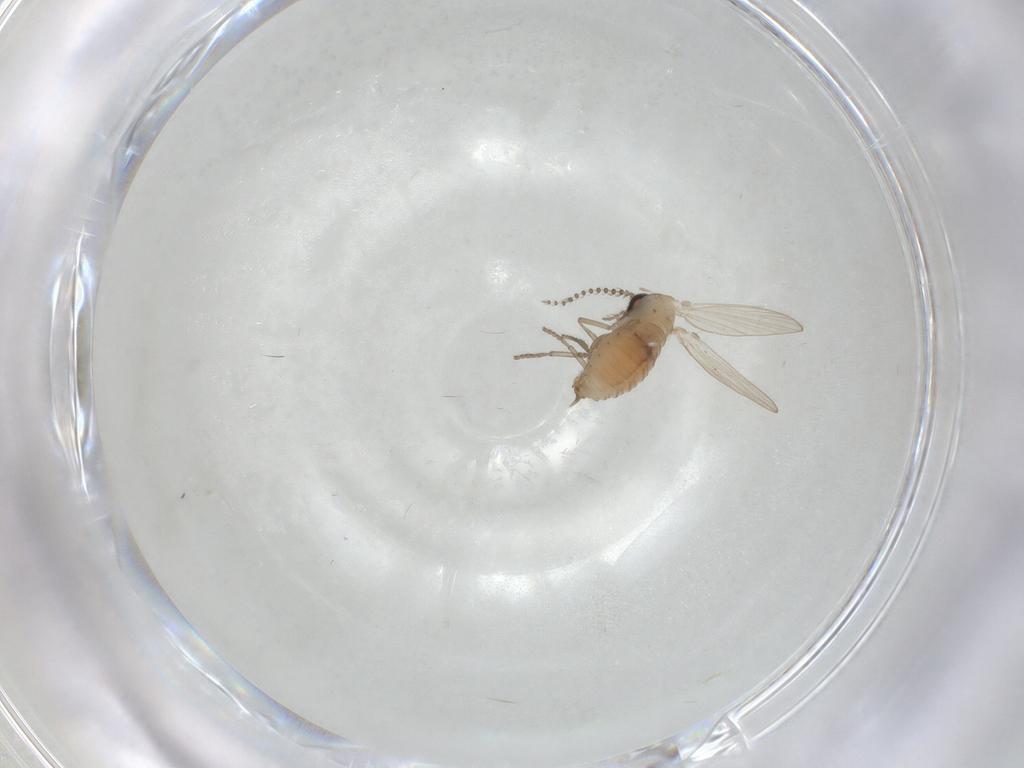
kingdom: Animalia
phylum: Arthropoda
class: Insecta
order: Diptera
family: Psychodidae
